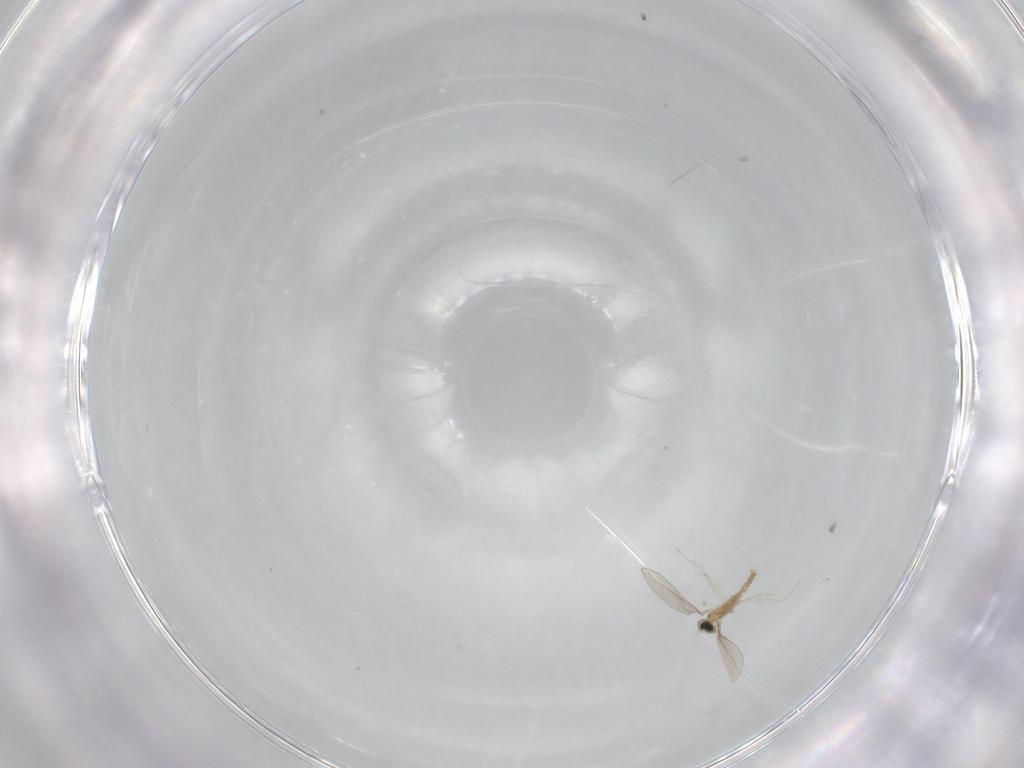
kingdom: Animalia
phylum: Arthropoda
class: Insecta
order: Diptera
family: Cecidomyiidae
